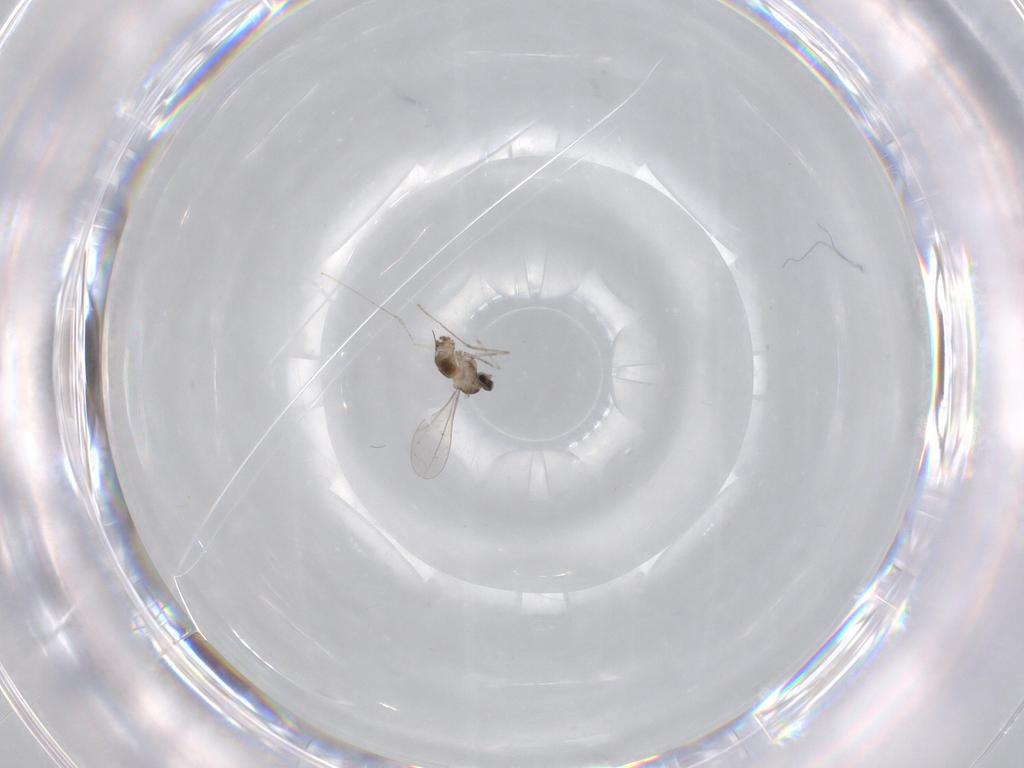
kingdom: Animalia
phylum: Arthropoda
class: Insecta
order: Diptera
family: Cecidomyiidae
